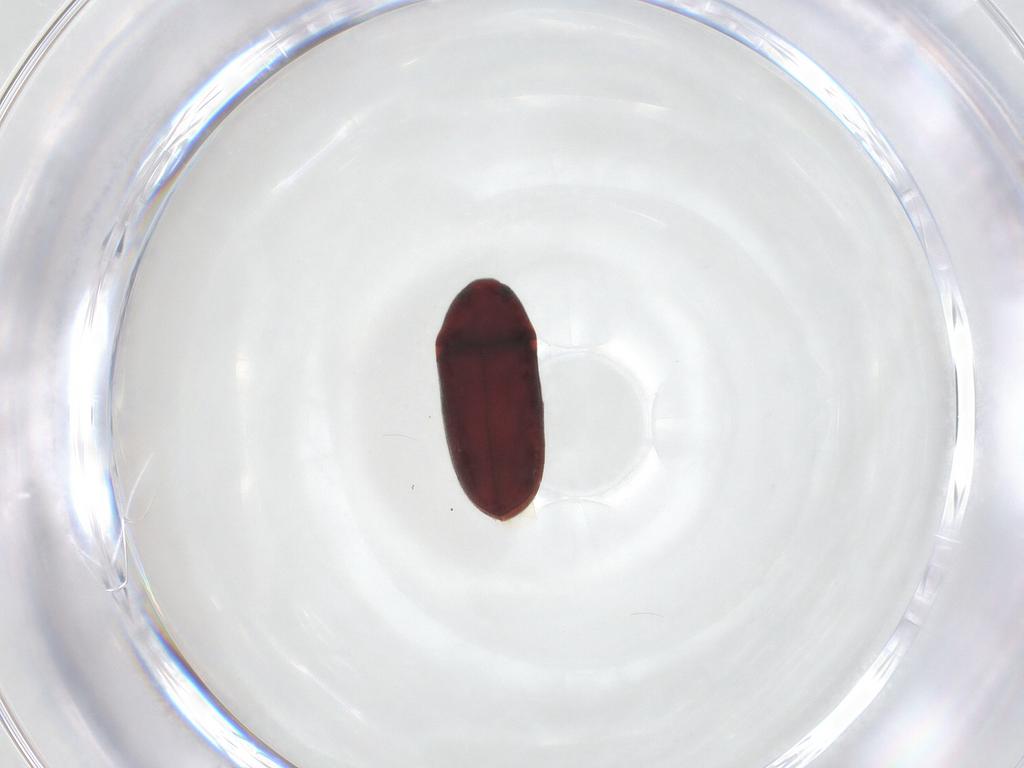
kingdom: Animalia
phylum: Arthropoda
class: Insecta
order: Coleoptera
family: Throscidae
